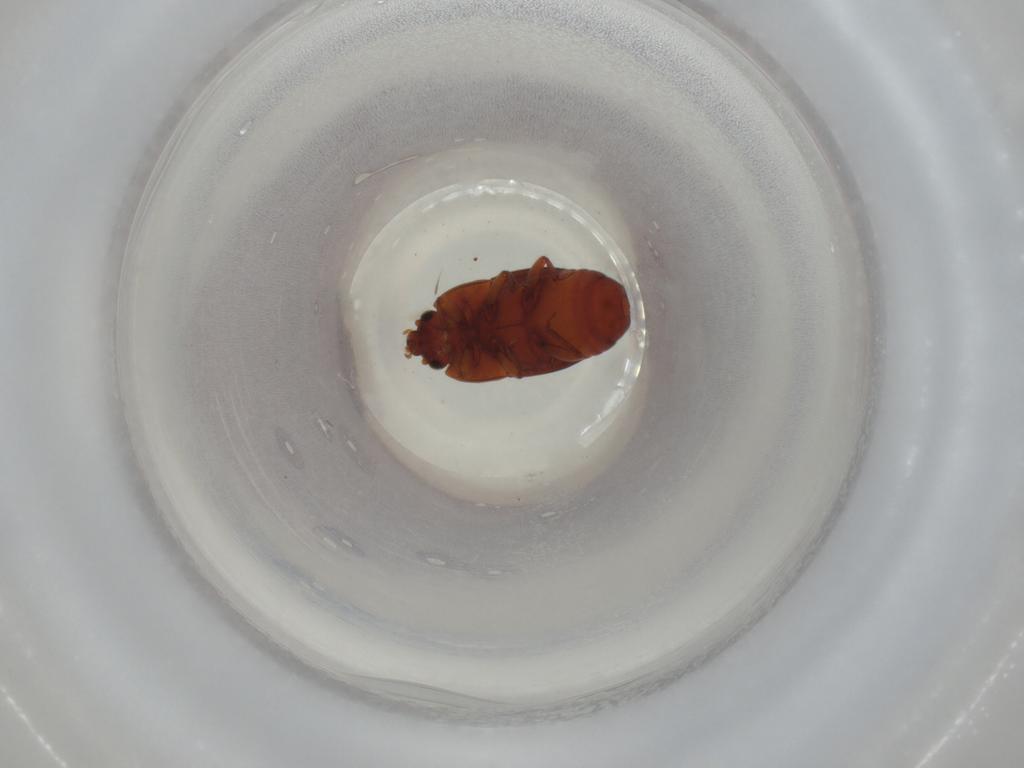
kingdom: Animalia
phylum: Arthropoda
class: Insecta
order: Coleoptera
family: Nitidulidae
